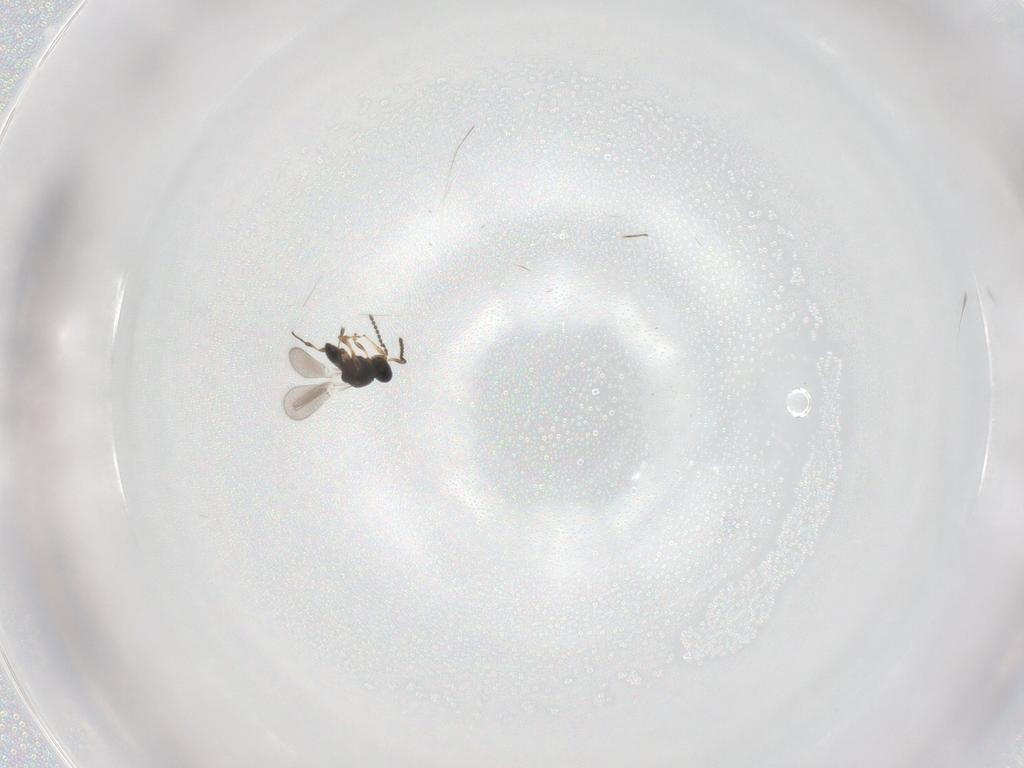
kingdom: Animalia
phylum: Arthropoda
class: Insecta
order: Hymenoptera
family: Platygastridae
